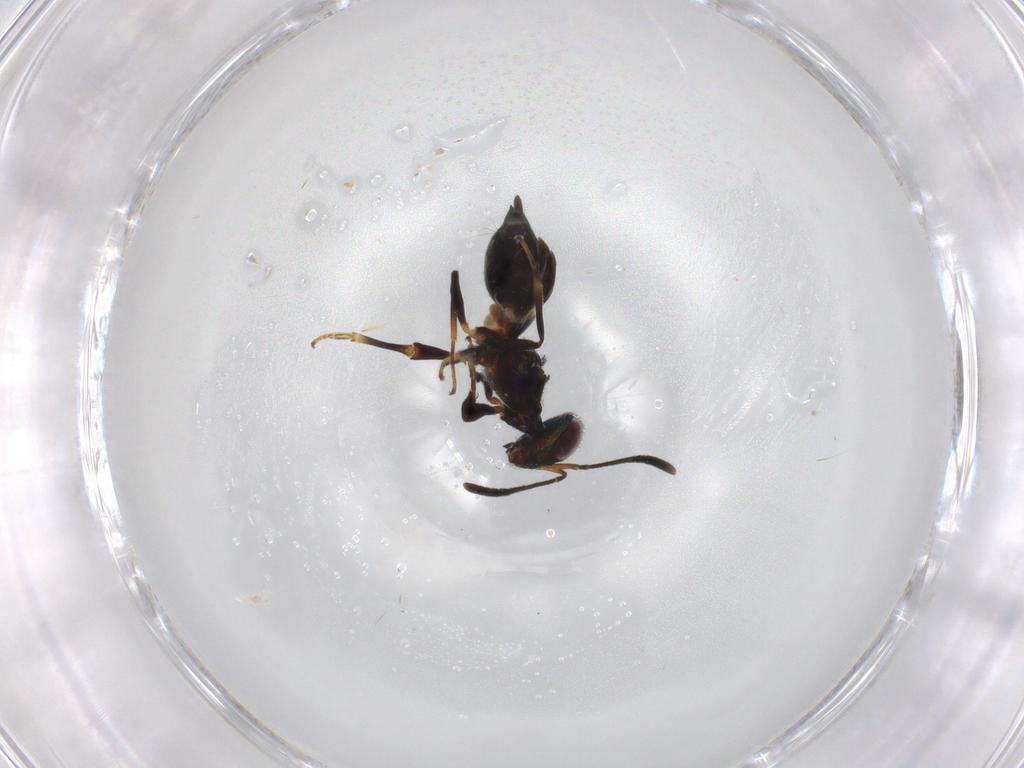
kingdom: Animalia
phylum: Arthropoda
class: Insecta
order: Hymenoptera
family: Eupelmidae
